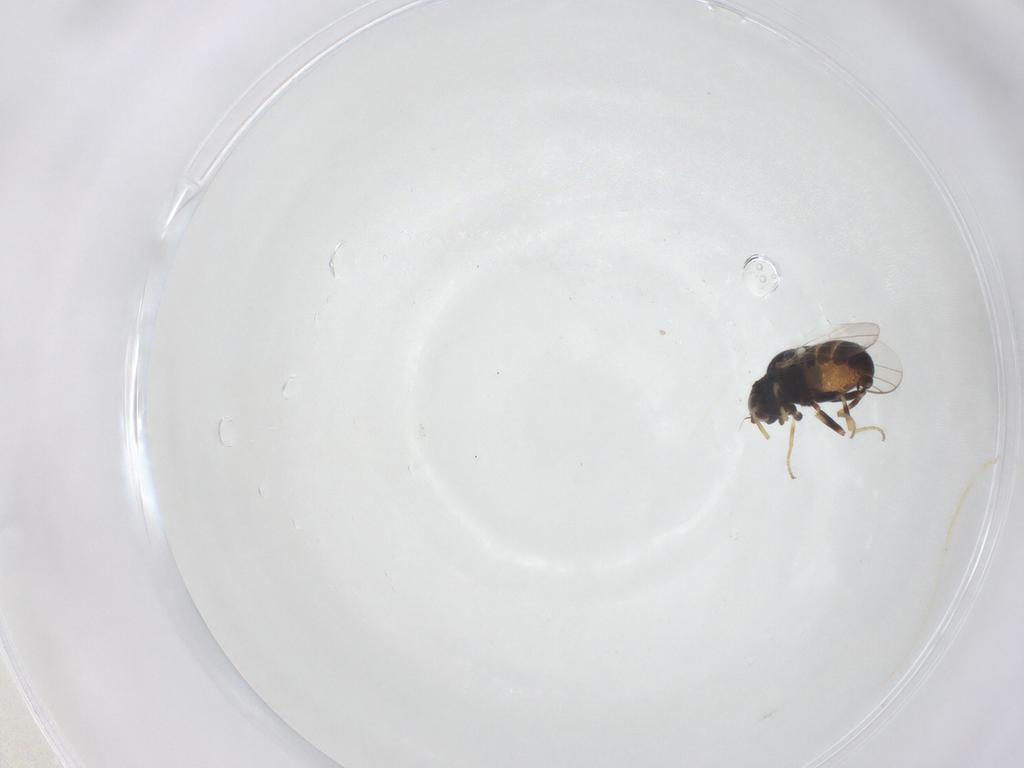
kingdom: Animalia
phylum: Arthropoda
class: Insecta
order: Diptera
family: Chloropidae
